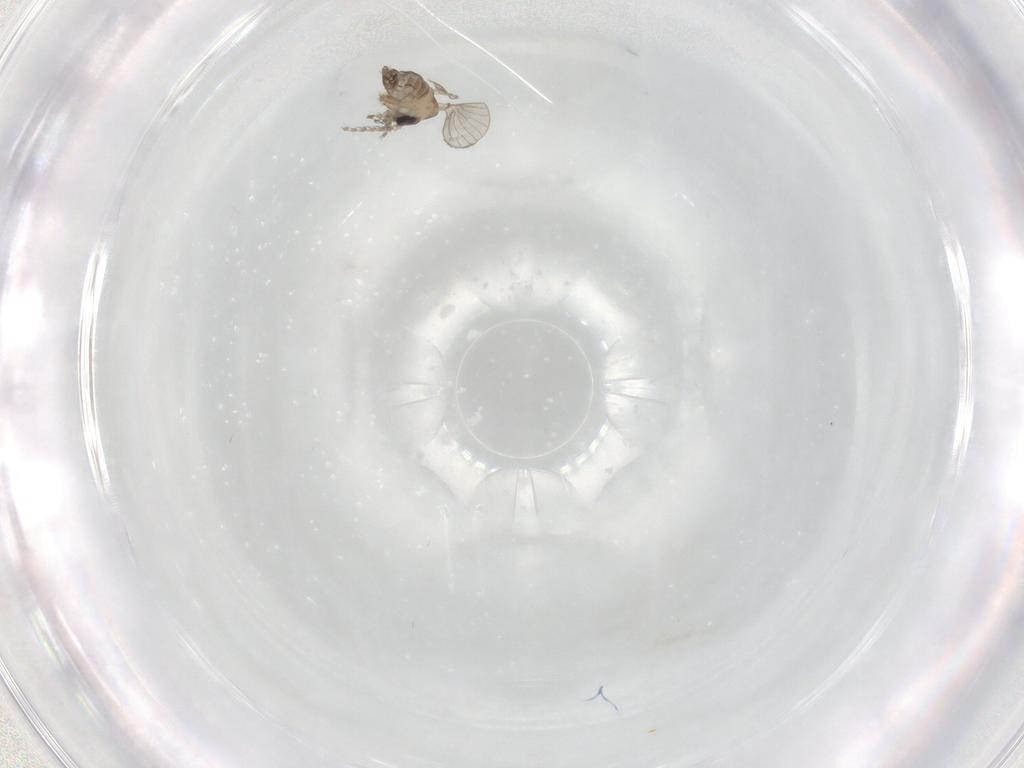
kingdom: Animalia
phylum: Arthropoda
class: Insecta
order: Diptera
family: Psychodidae
